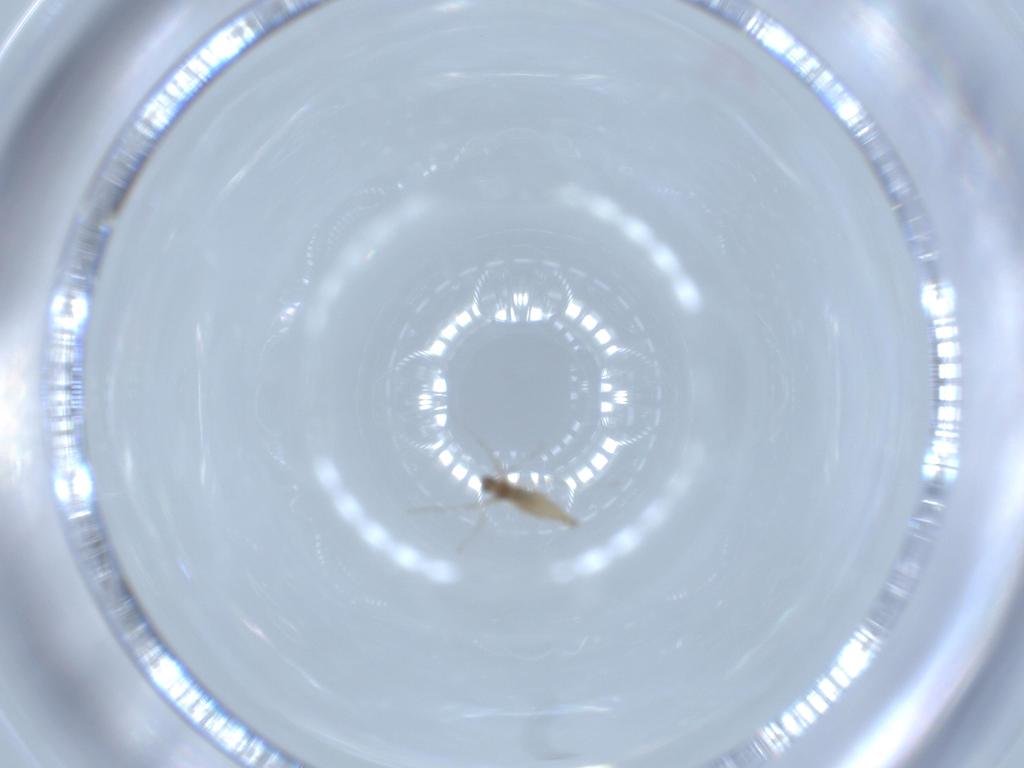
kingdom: Animalia
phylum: Arthropoda
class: Insecta
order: Diptera
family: Cecidomyiidae
